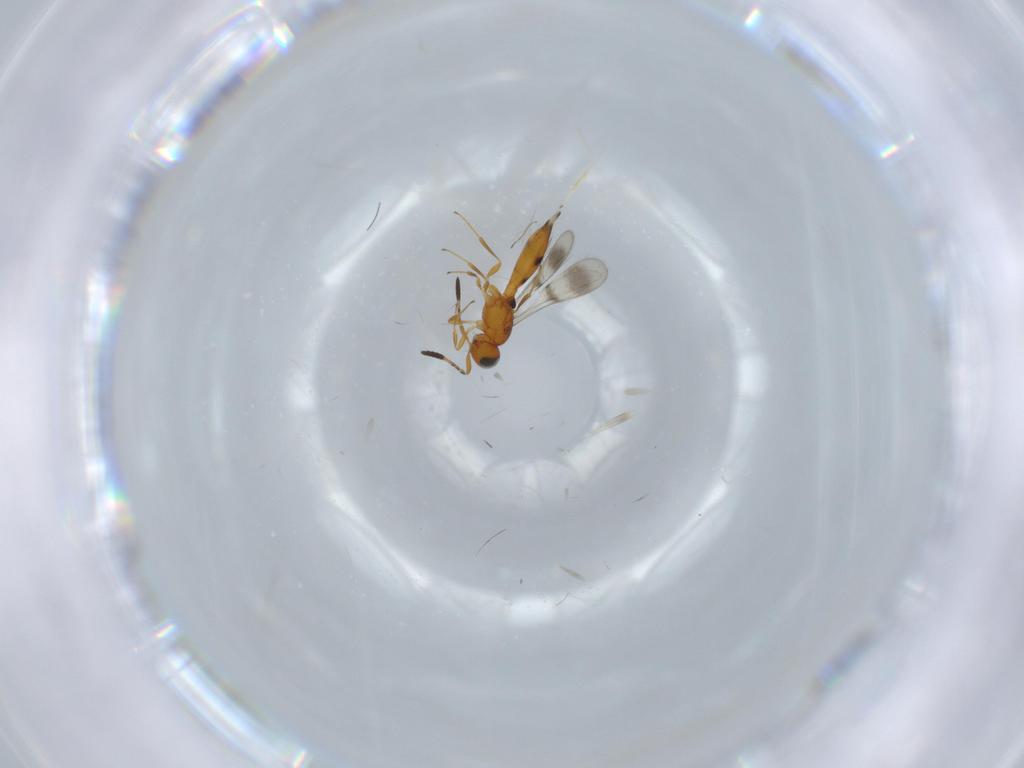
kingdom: Animalia
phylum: Arthropoda
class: Insecta
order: Hymenoptera
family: Scelionidae
